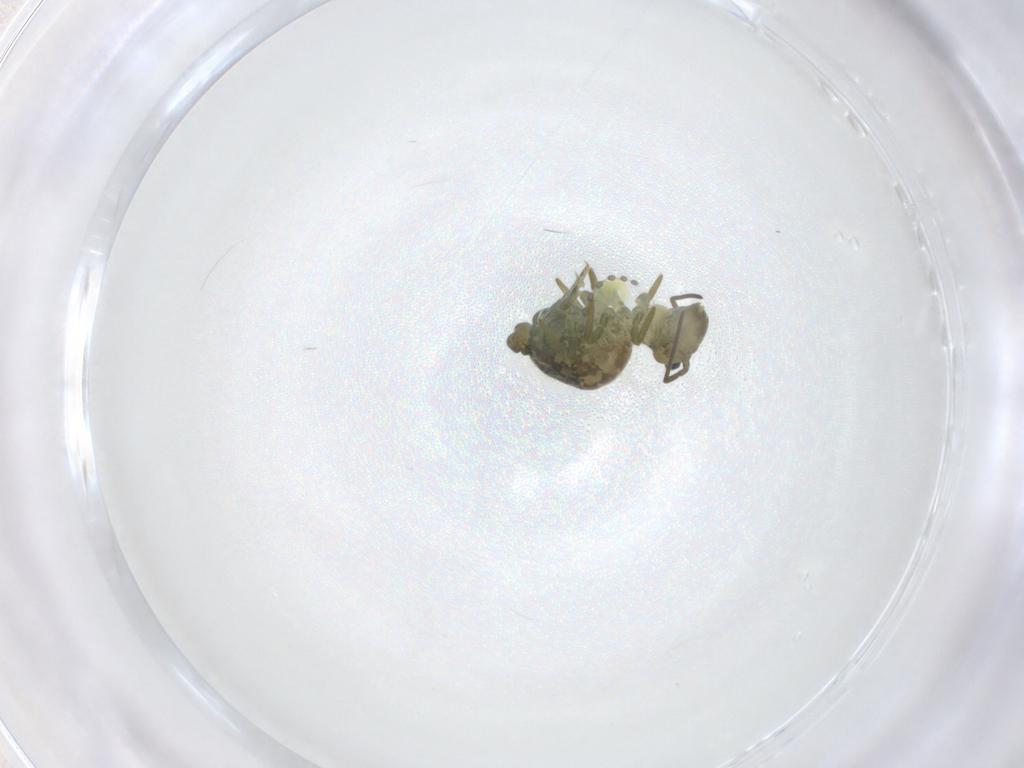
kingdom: Animalia
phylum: Arthropoda
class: Collembola
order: Symphypleona
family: Sminthuridae
